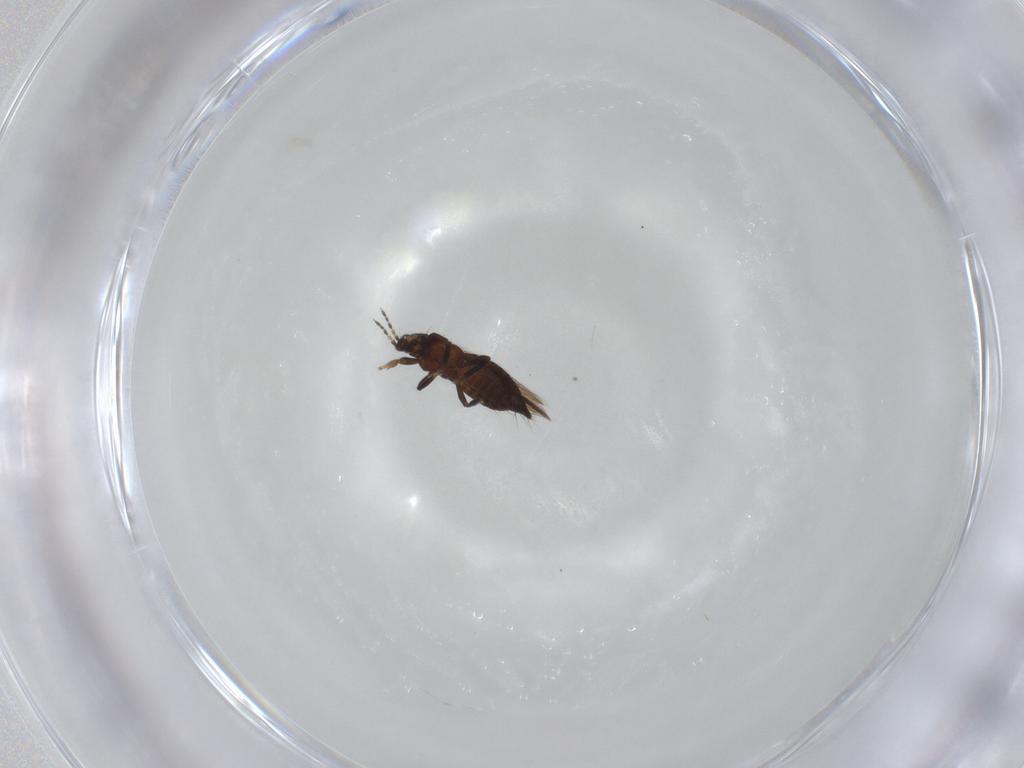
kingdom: Animalia
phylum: Arthropoda
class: Insecta
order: Thysanoptera
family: Thripidae
